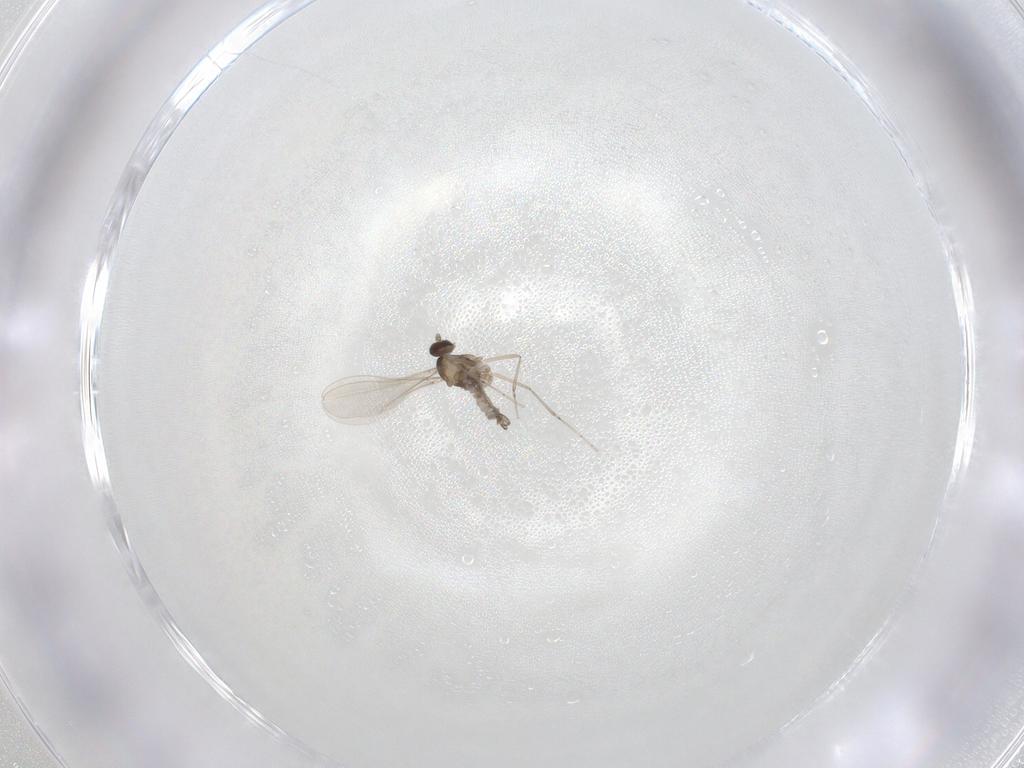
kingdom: Animalia
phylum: Arthropoda
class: Insecta
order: Diptera
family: Cecidomyiidae
